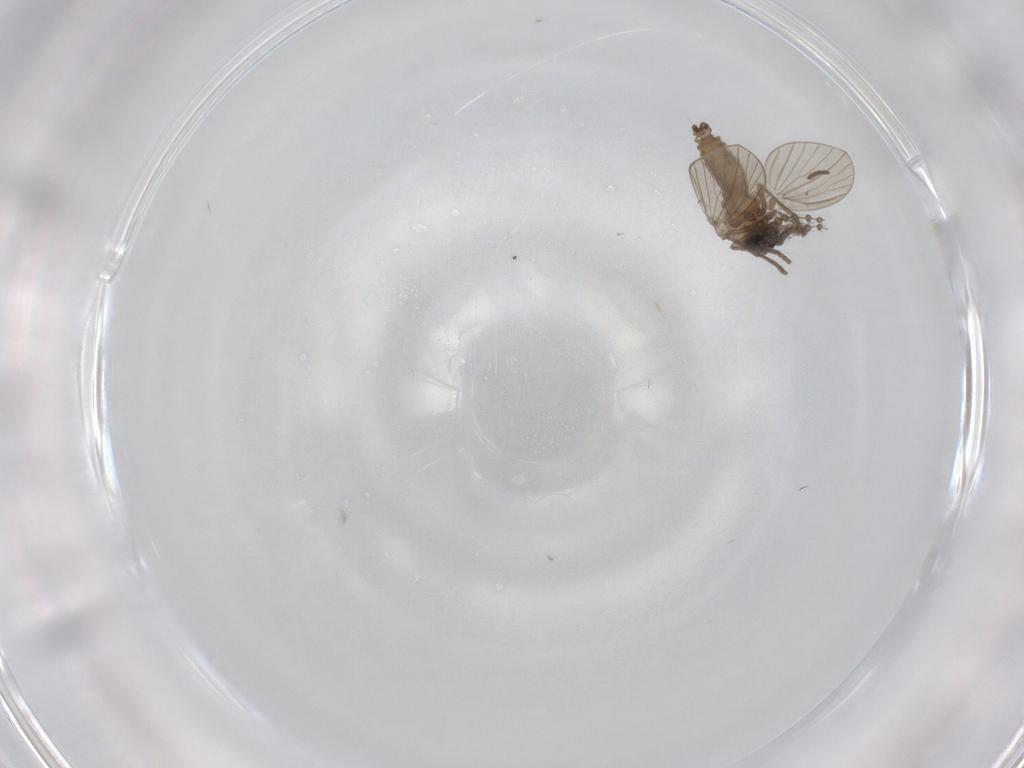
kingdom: Animalia
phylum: Arthropoda
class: Insecta
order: Diptera
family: Psychodidae
